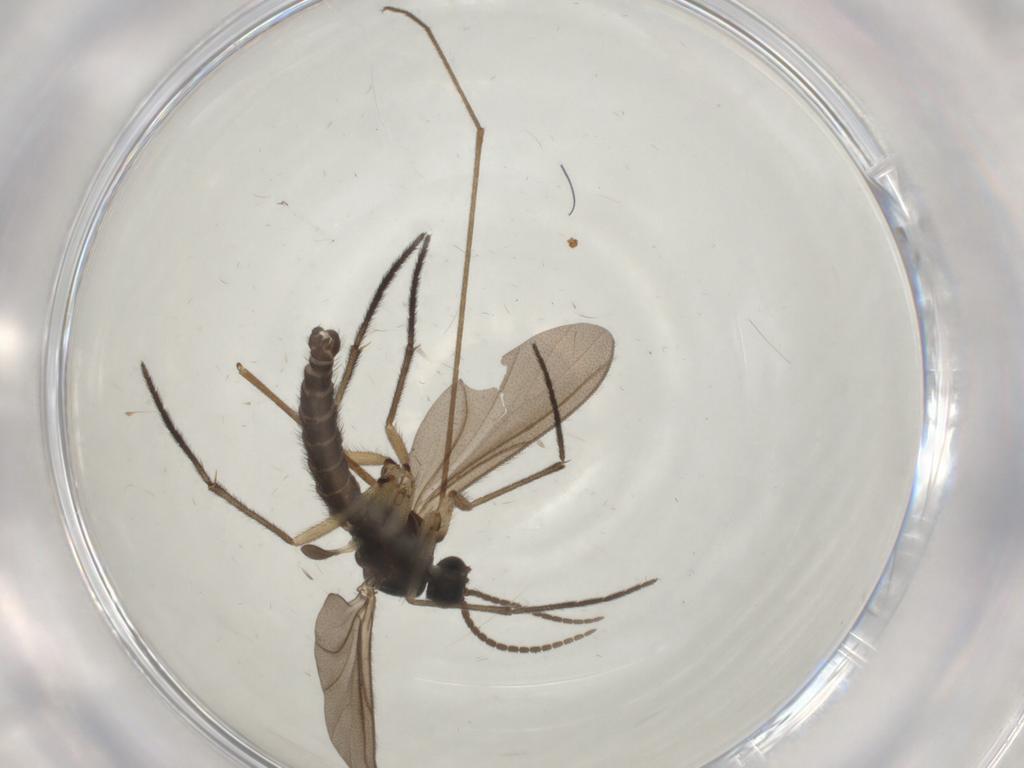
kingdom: Animalia
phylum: Arthropoda
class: Insecta
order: Diptera
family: Sciaridae
